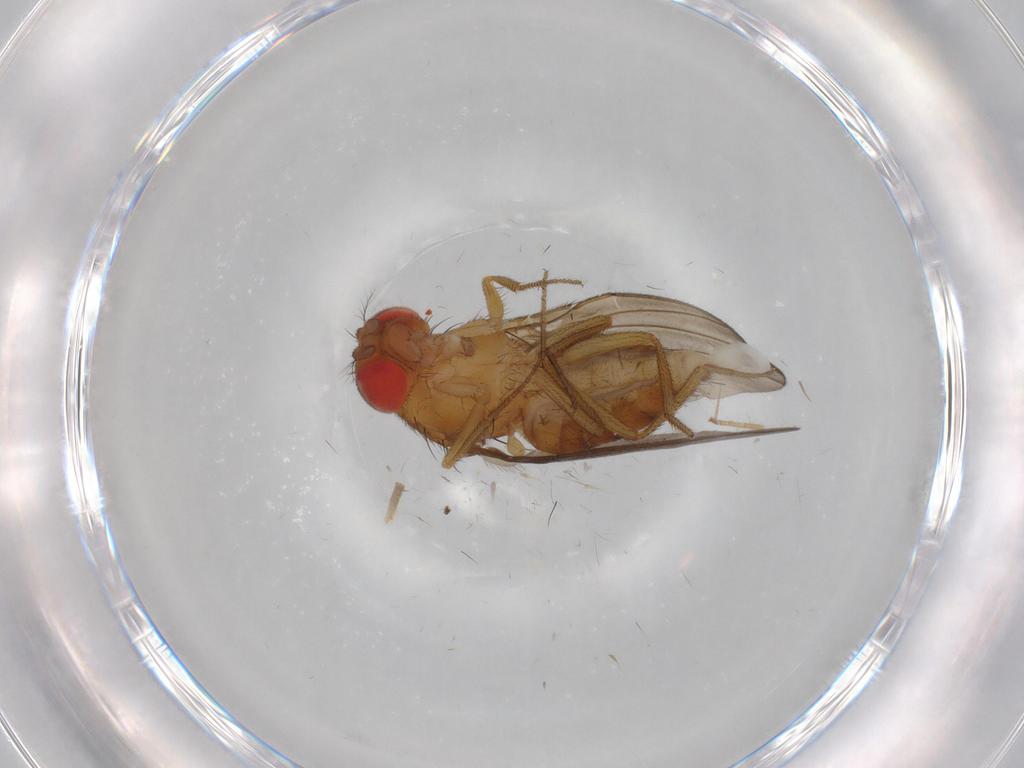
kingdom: Animalia
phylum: Arthropoda
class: Insecta
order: Diptera
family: Drosophilidae
